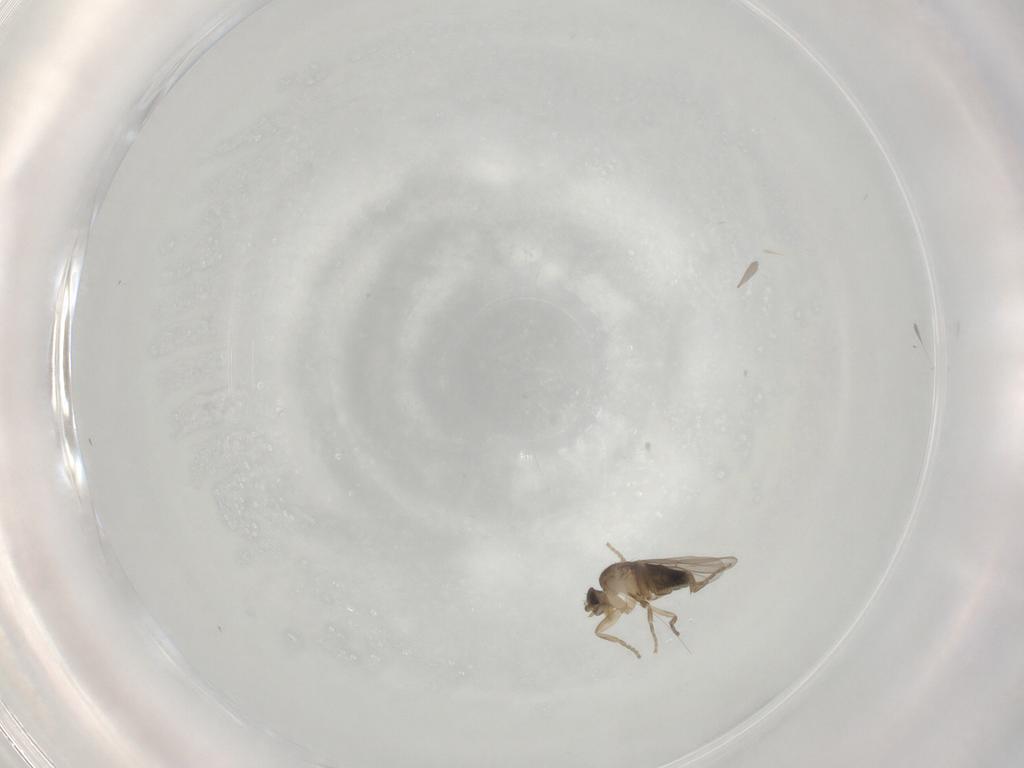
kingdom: Animalia
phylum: Arthropoda
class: Insecta
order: Diptera
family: Phoridae
